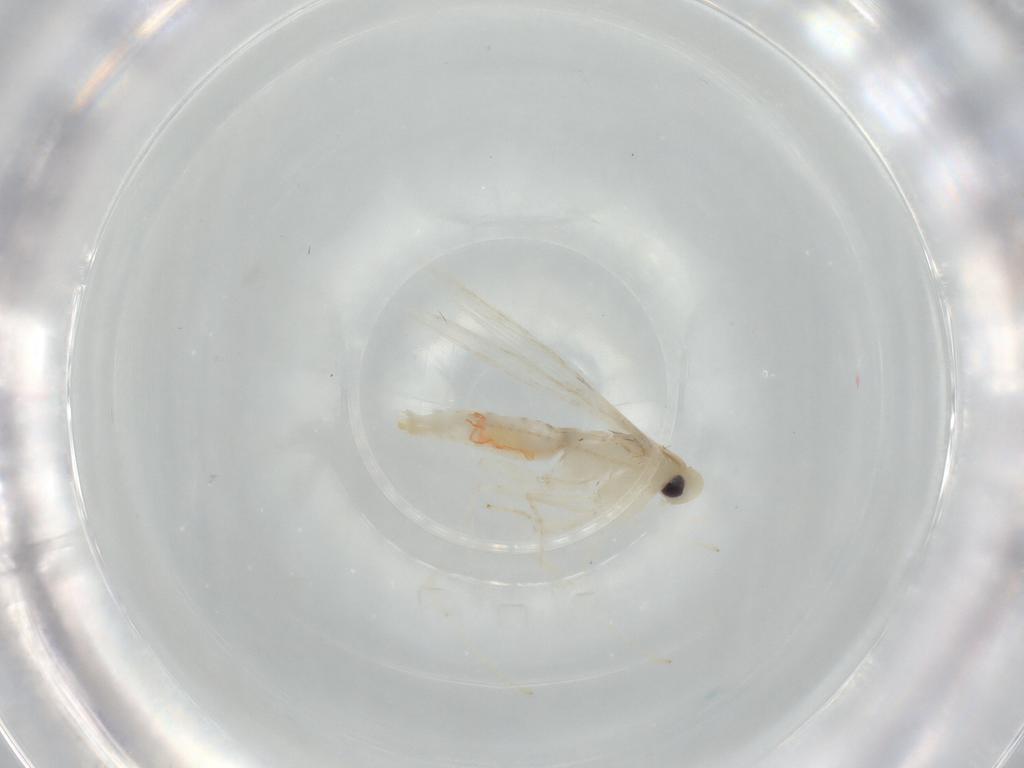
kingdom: Animalia
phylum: Arthropoda
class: Insecta
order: Lepidoptera
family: Gracillariidae
